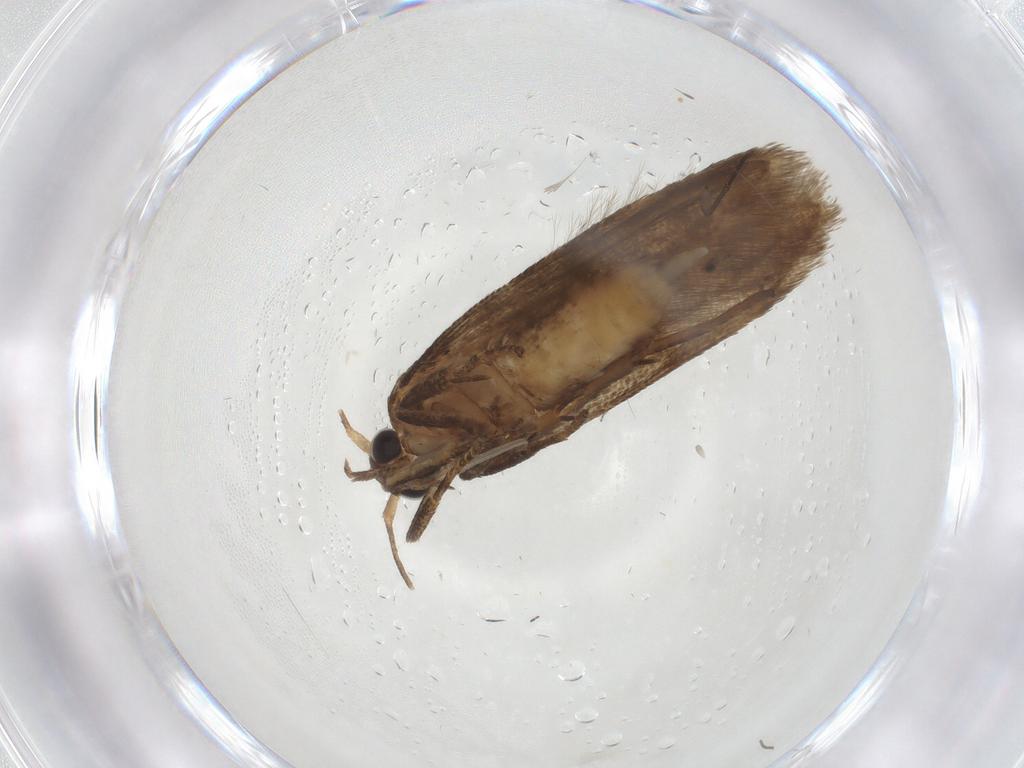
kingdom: Animalia
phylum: Arthropoda
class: Insecta
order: Lepidoptera
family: Blastobasidae
